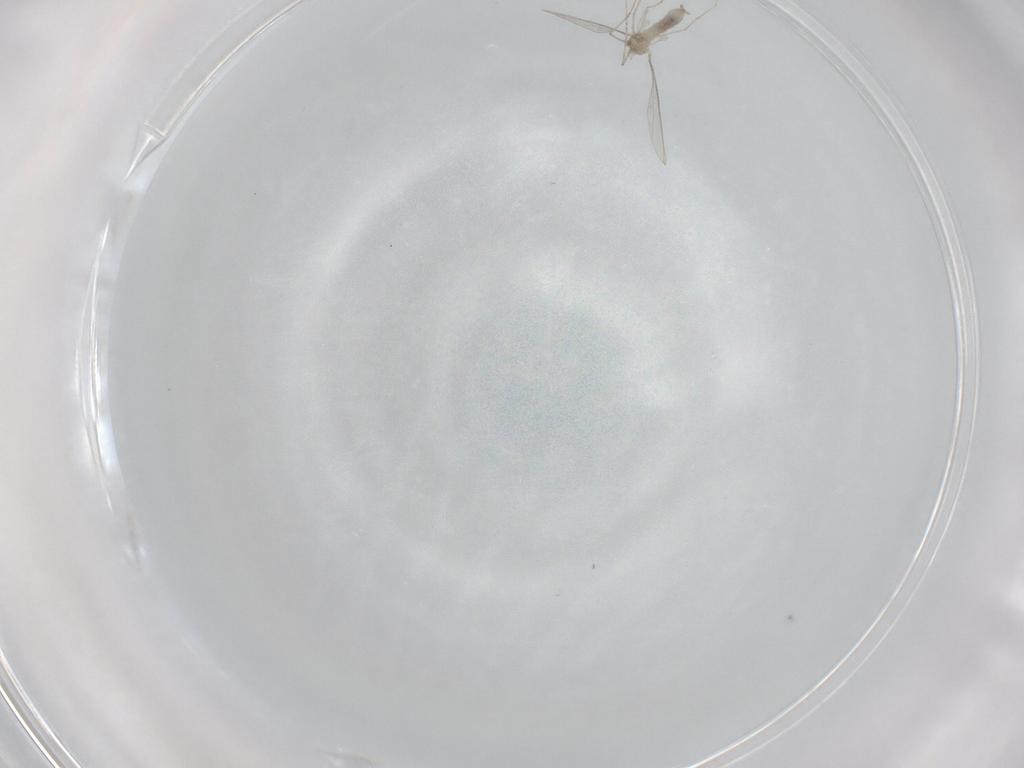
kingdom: Animalia
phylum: Arthropoda
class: Insecta
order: Diptera
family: Cecidomyiidae
